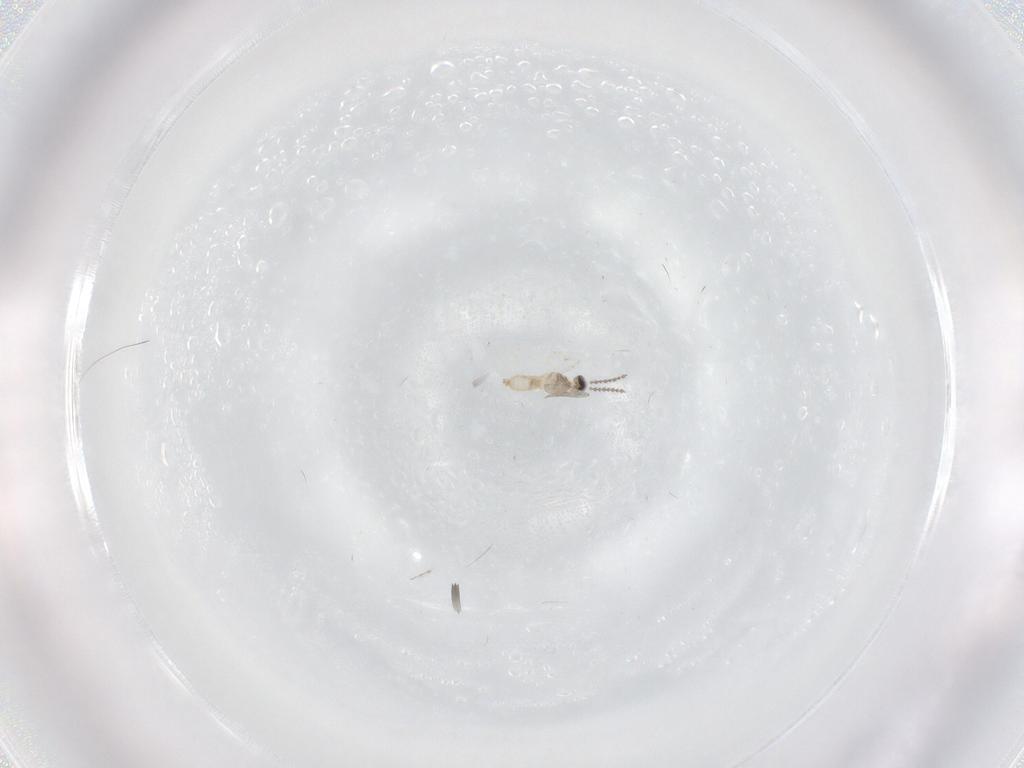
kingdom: Animalia
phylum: Arthropoda
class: Insecta
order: Diptera
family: Cecidomyiidae
